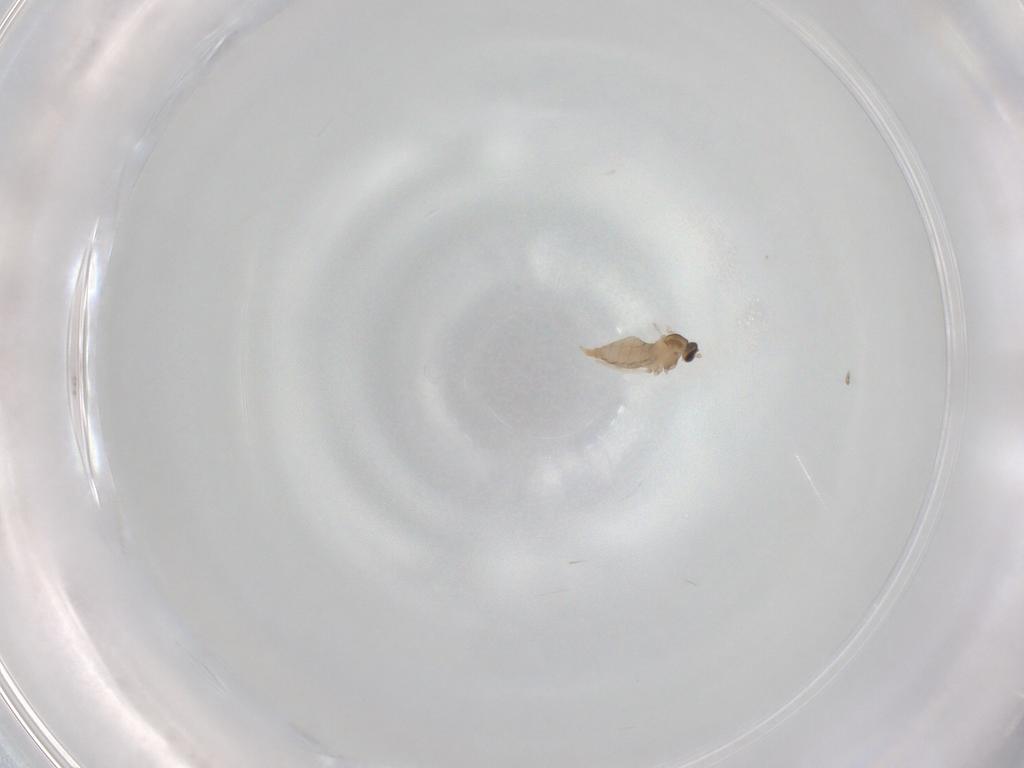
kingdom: Animalia
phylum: Arthropoda
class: Insecta
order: Diptera
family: Cecidomyiidae
